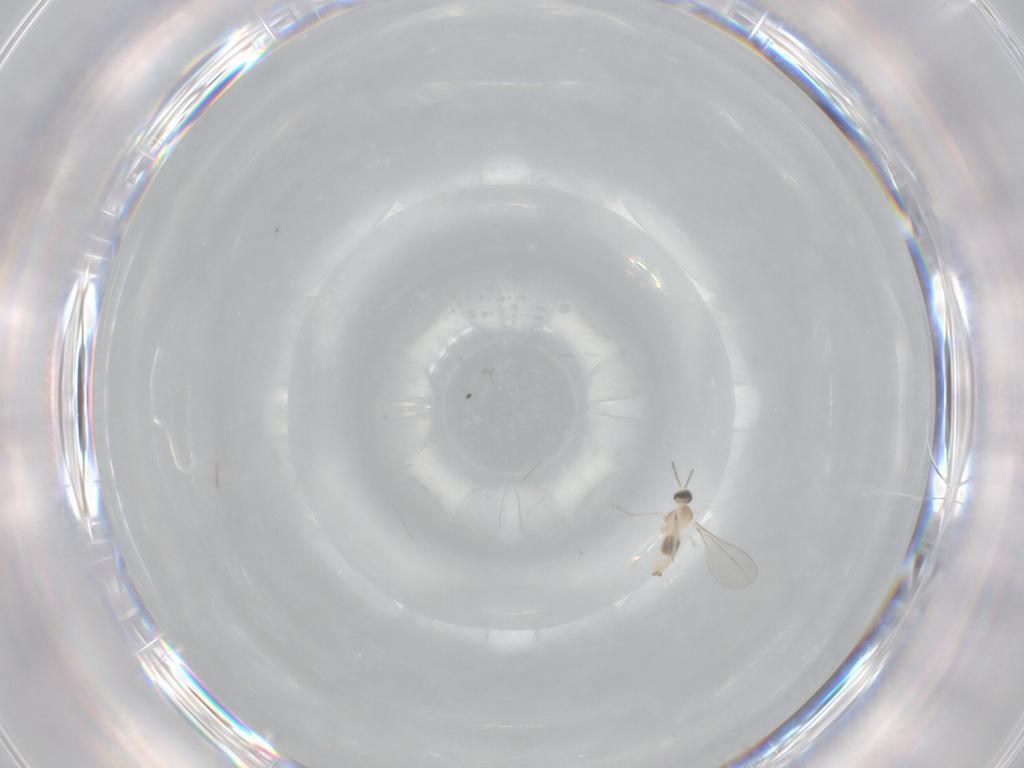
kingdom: Animalia
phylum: Arthropoda
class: Insecta
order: Diptera
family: Cecidomyiidae
